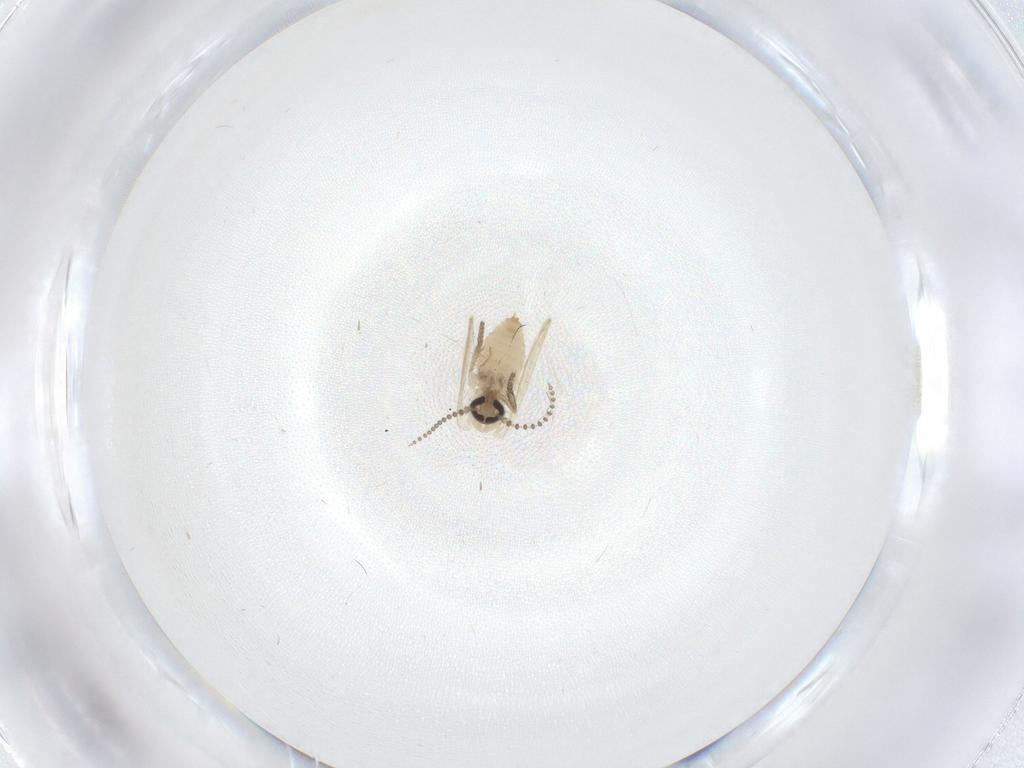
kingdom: Animalia
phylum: Arthropoda
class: Insecta
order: Diptera
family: Psychodidae
